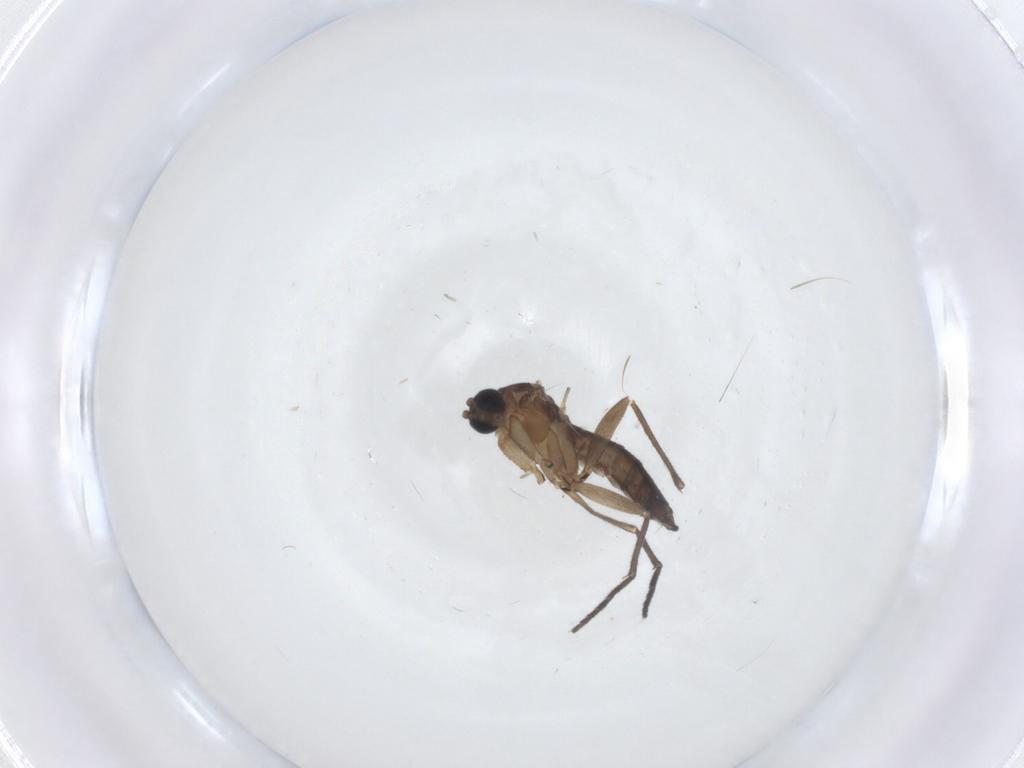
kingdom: Animalia
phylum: Arthropoda
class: Insecta
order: Diptera
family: Sciaridae
